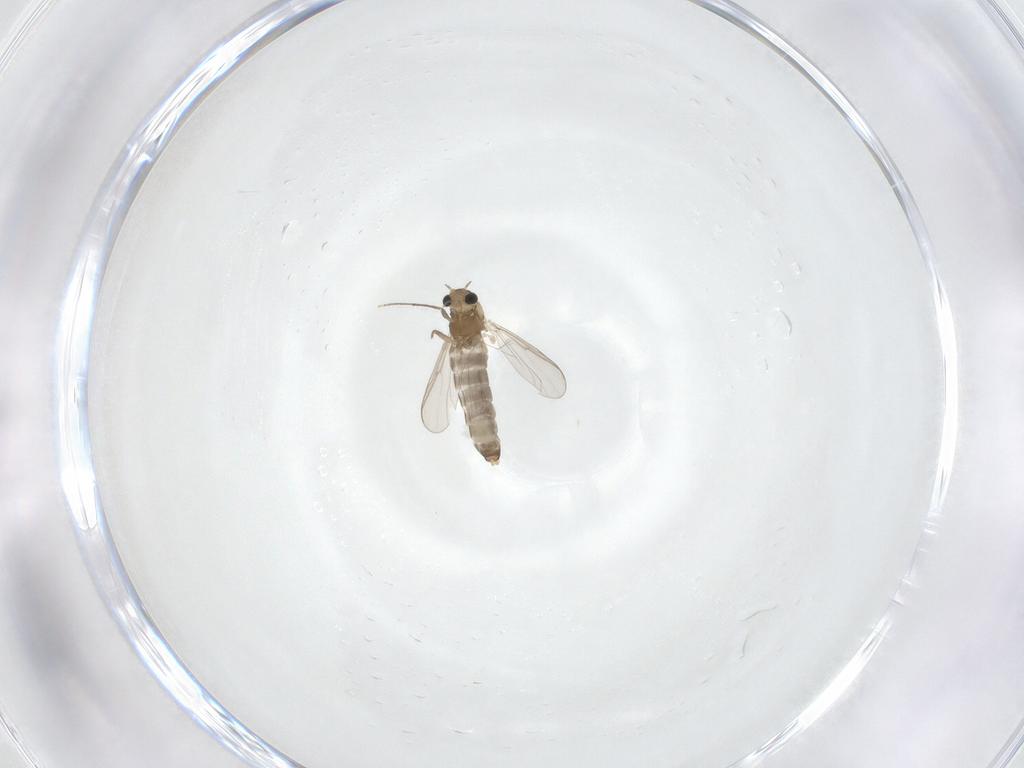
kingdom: Animalia
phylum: Arthropoda
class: Insecta
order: Diptera
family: Chironomidae
